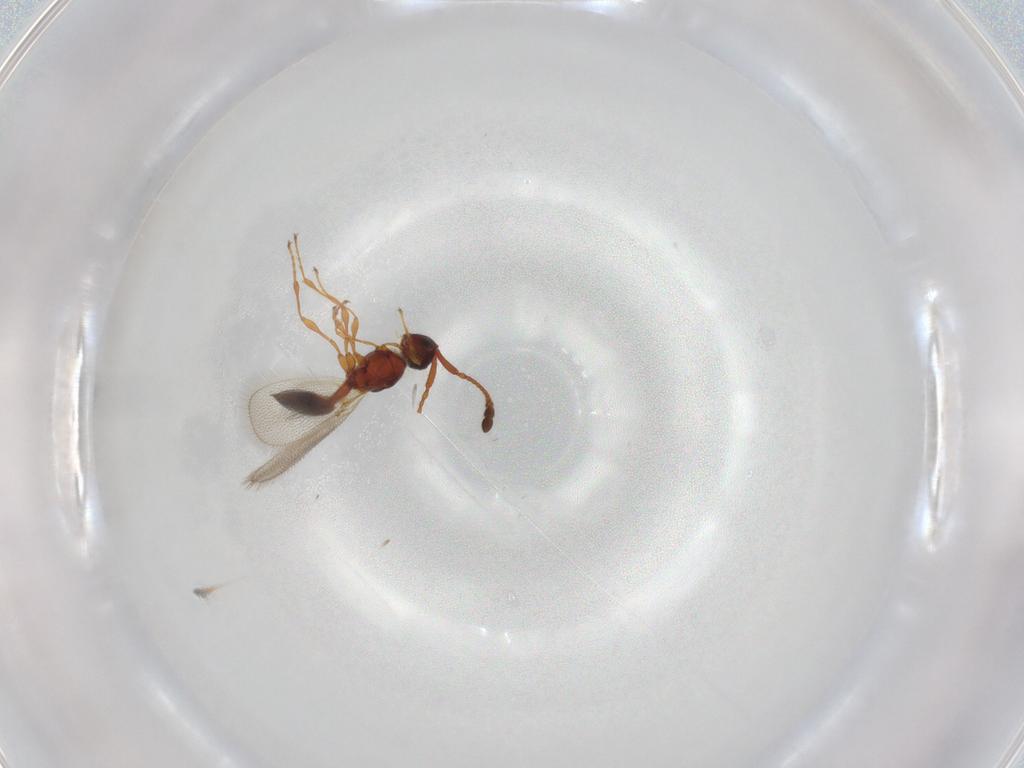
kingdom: Animalia
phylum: Arthropoda
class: Insecta
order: Hymenoptera
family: Diapriidae
